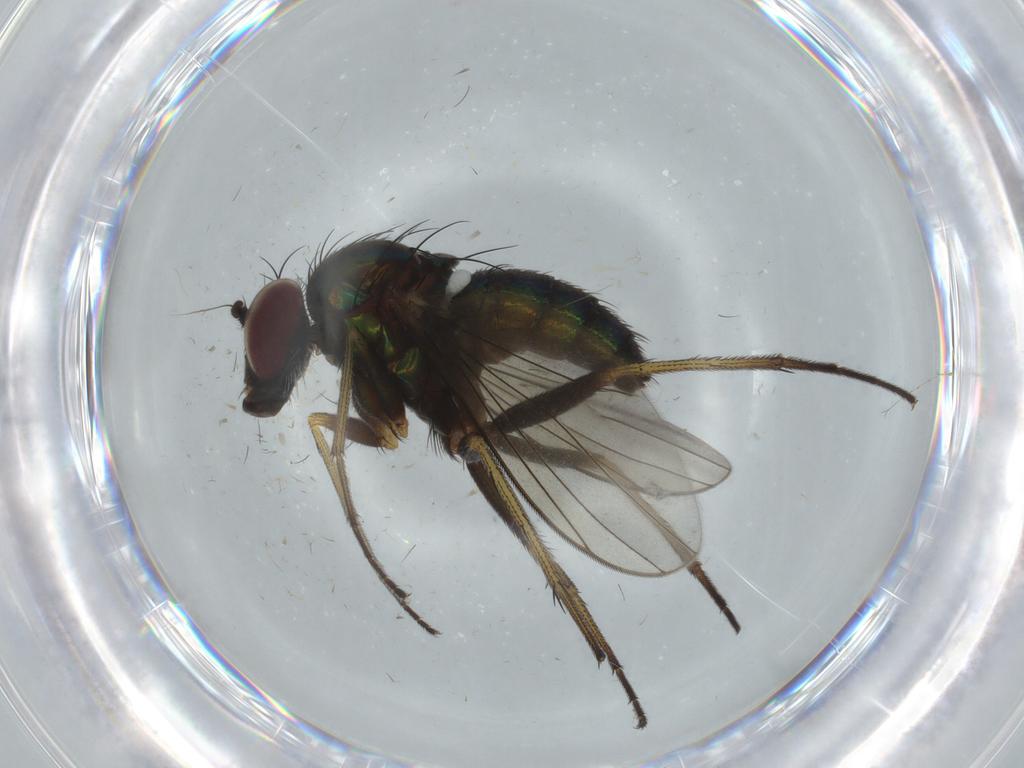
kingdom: Animalia
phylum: Arthropoda
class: Insecta
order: Diptera
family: Dolichopodidae
